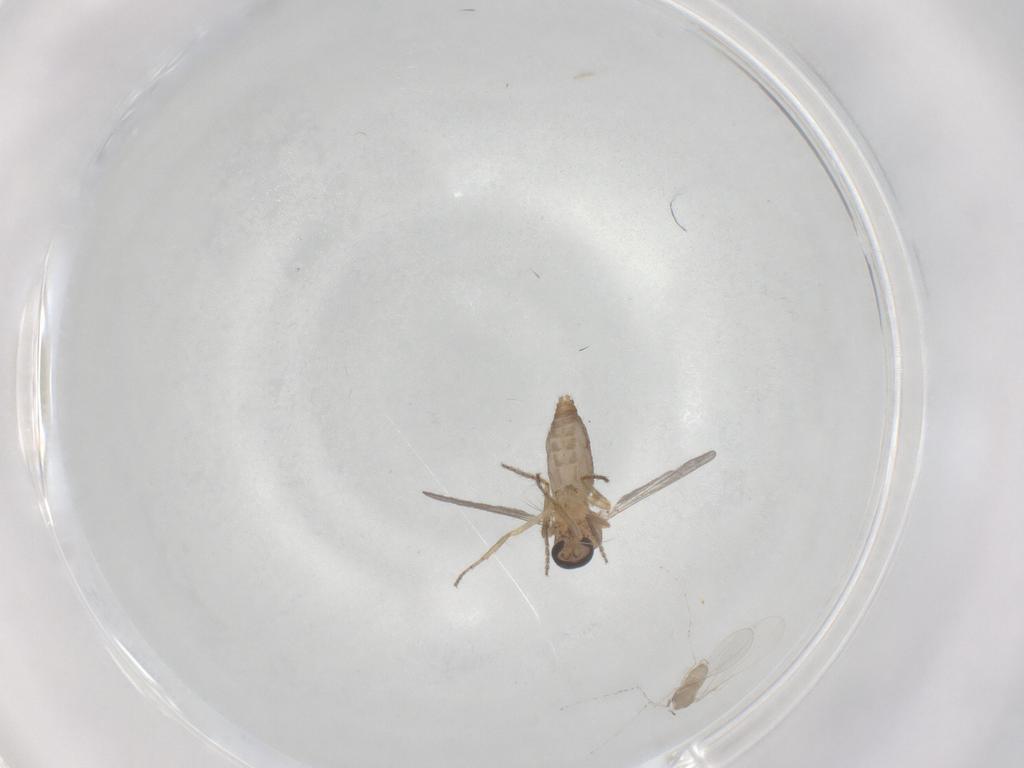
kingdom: Animalia
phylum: Arthropoda
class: Insecta
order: Diptera
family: Ceratopogonidae
